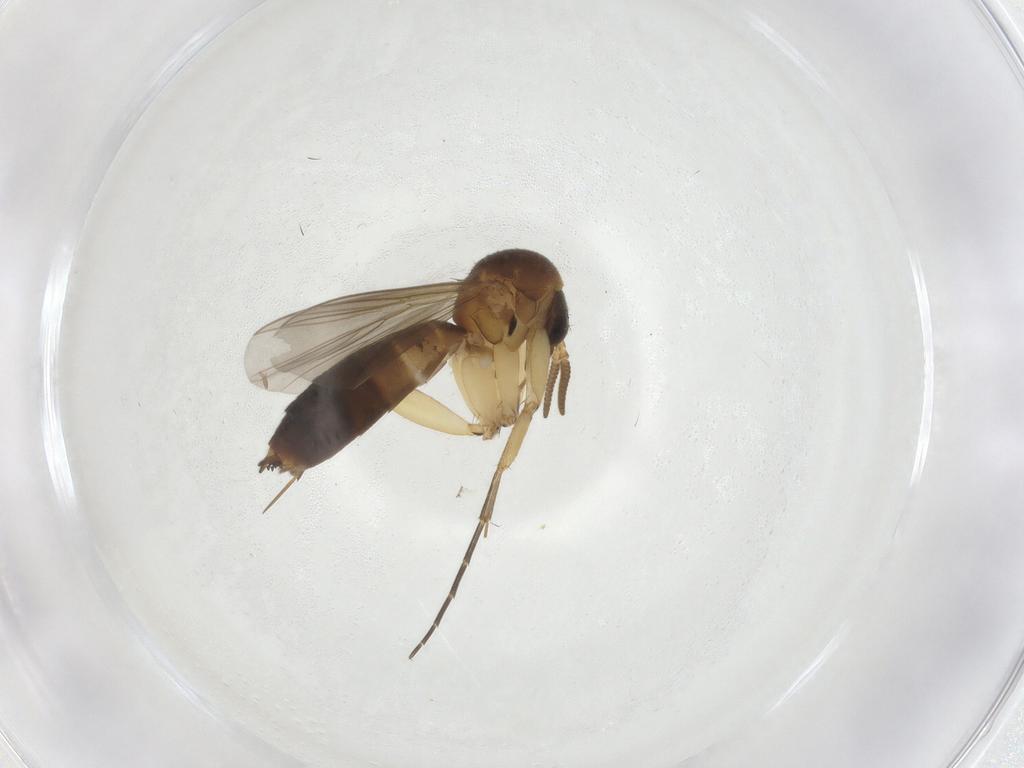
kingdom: Animalia
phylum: Arthropoda
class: Insecta
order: Diptera
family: Mycetophilidae
